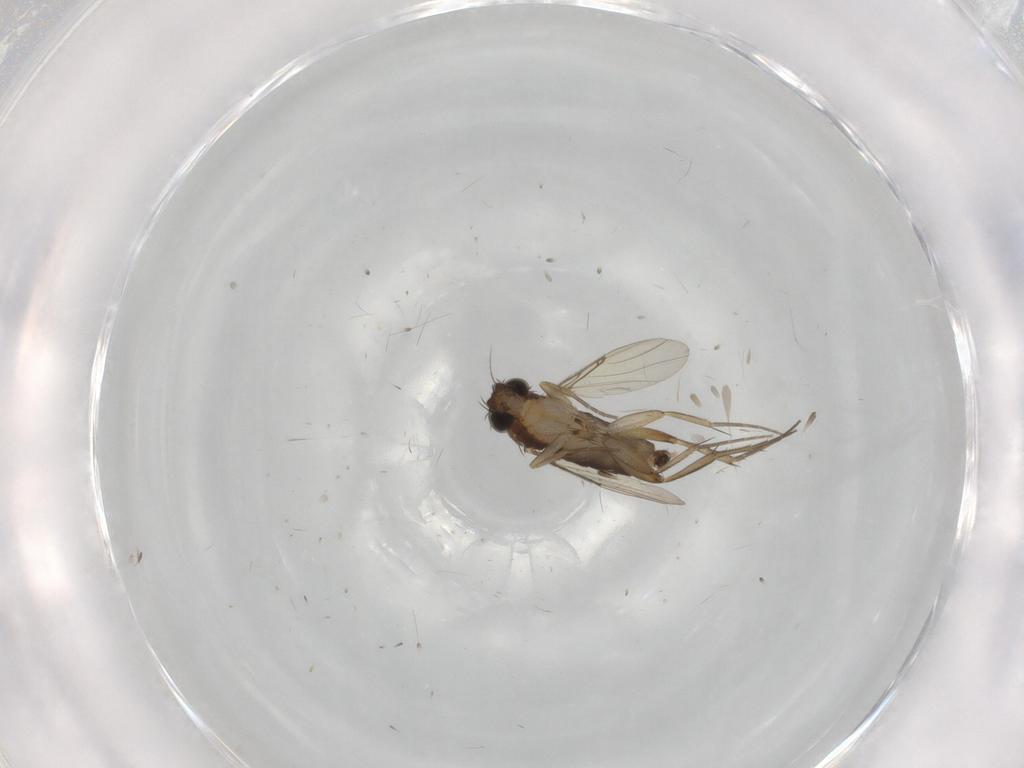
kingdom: Animalia
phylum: Arthropoda
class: Insecta
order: Diptera
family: Phoridae
